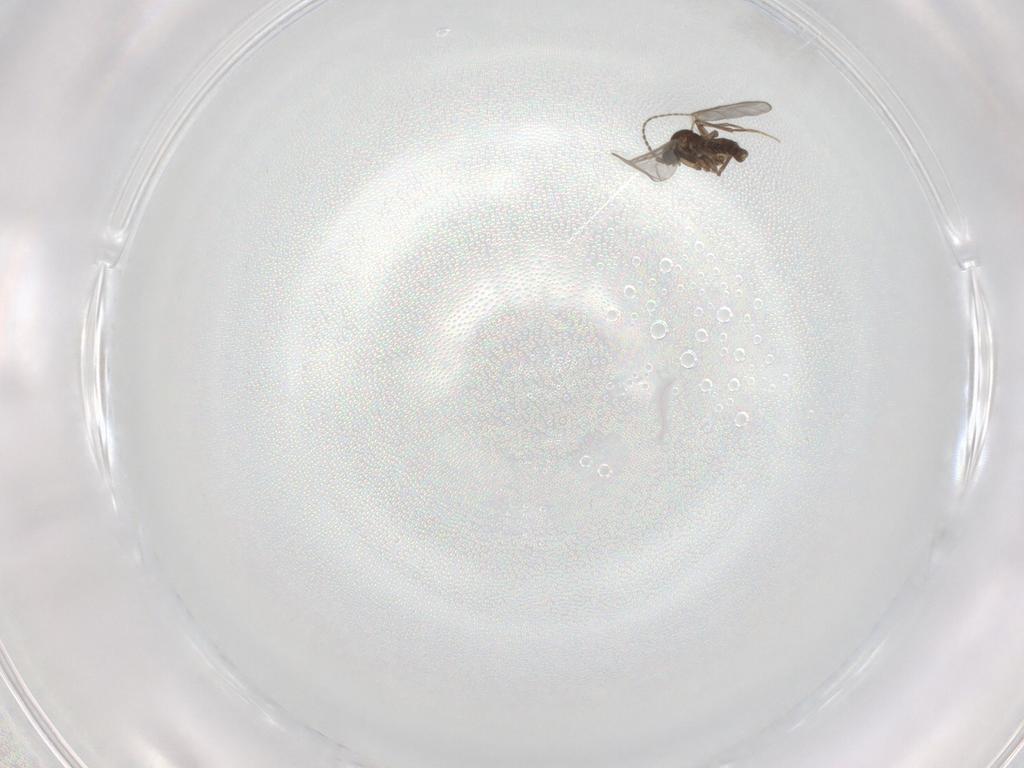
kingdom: Animalia
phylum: Arthropoda
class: Insecta
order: Diptera
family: Sciaridae
